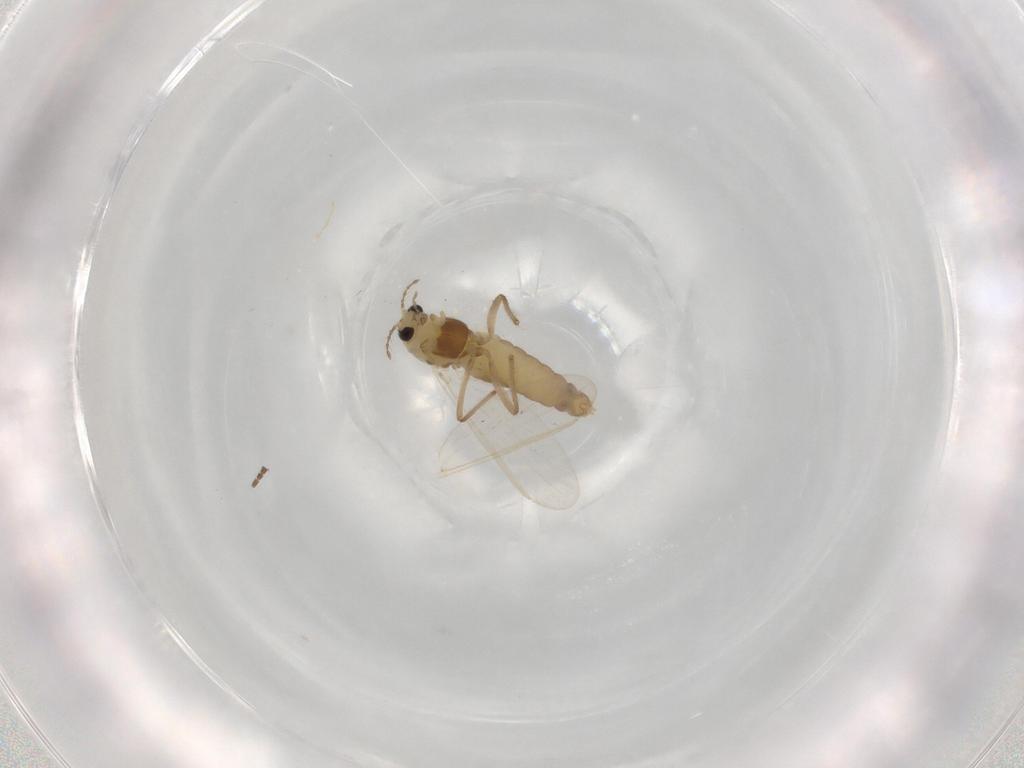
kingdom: Animalia
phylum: Arthropoda
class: Insecta
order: Diptera
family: Chironomidae
